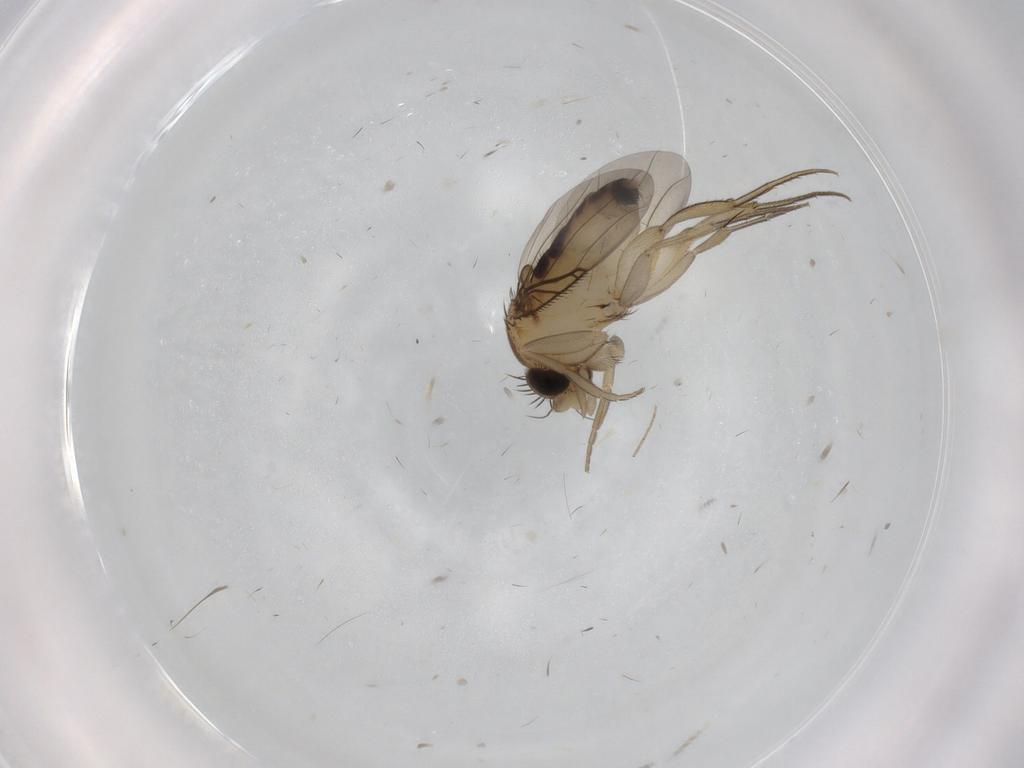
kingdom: Animalia
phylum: Arthropoda
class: Insecta
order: Diptera
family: Phoridae
